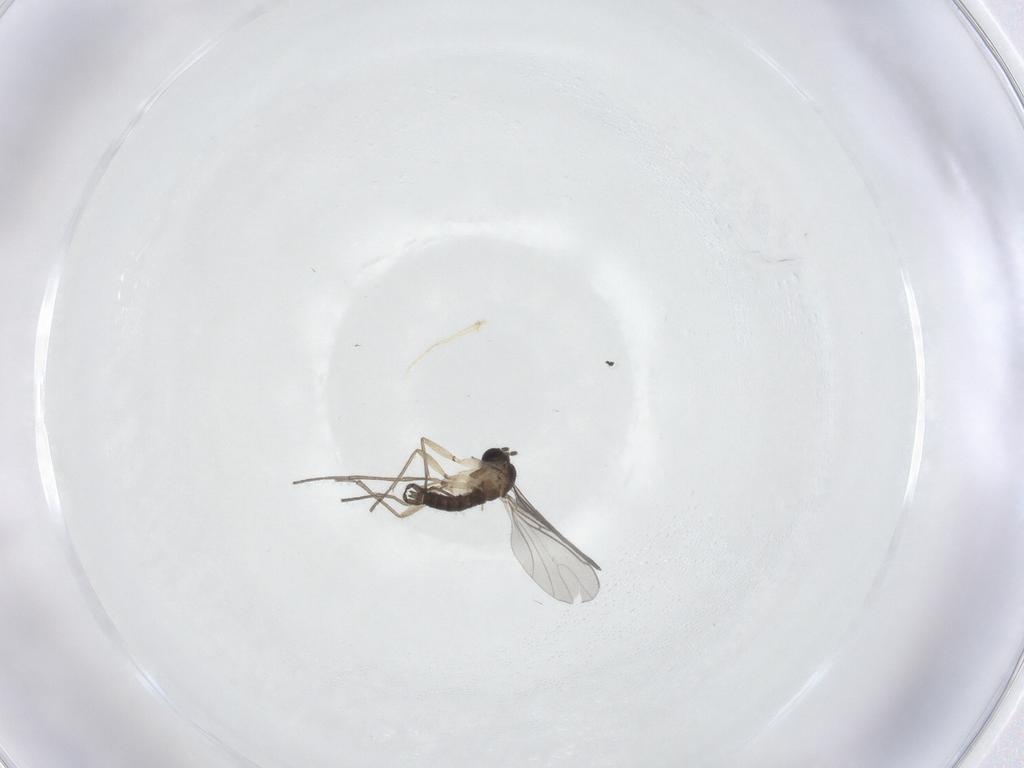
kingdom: Animalia
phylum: Arthropoda
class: Insecta
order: Diptera
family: Sciaridae
